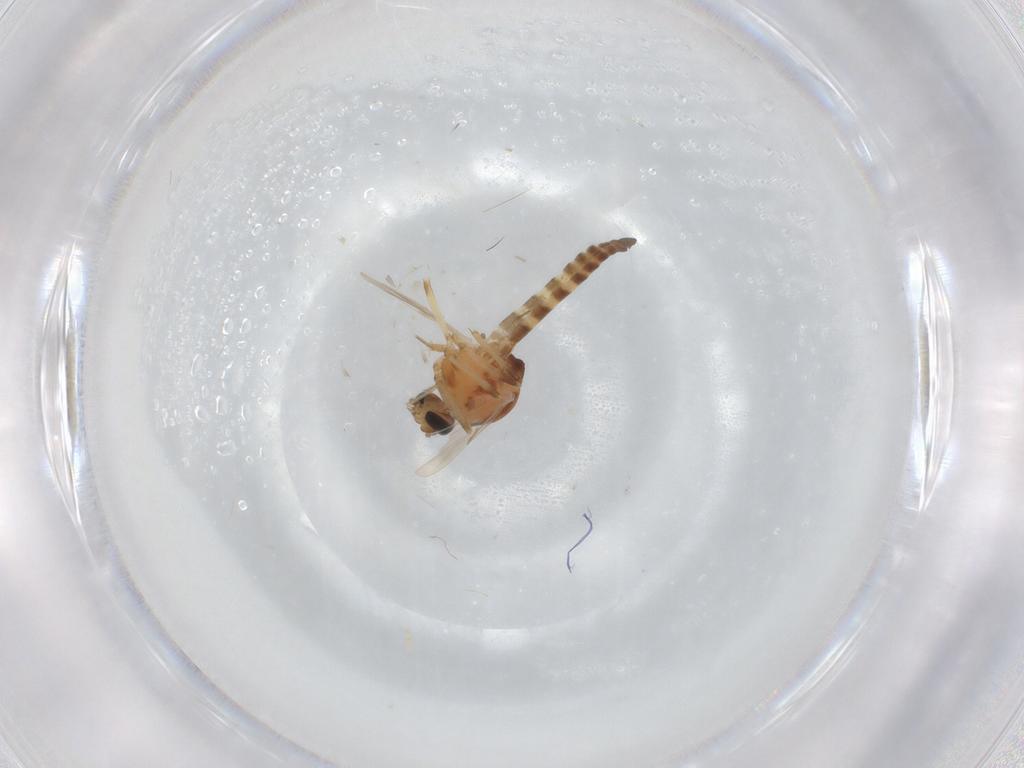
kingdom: Animalia
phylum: Arthropoda
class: Insecta
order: Diptera
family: Ceratopogonidae
